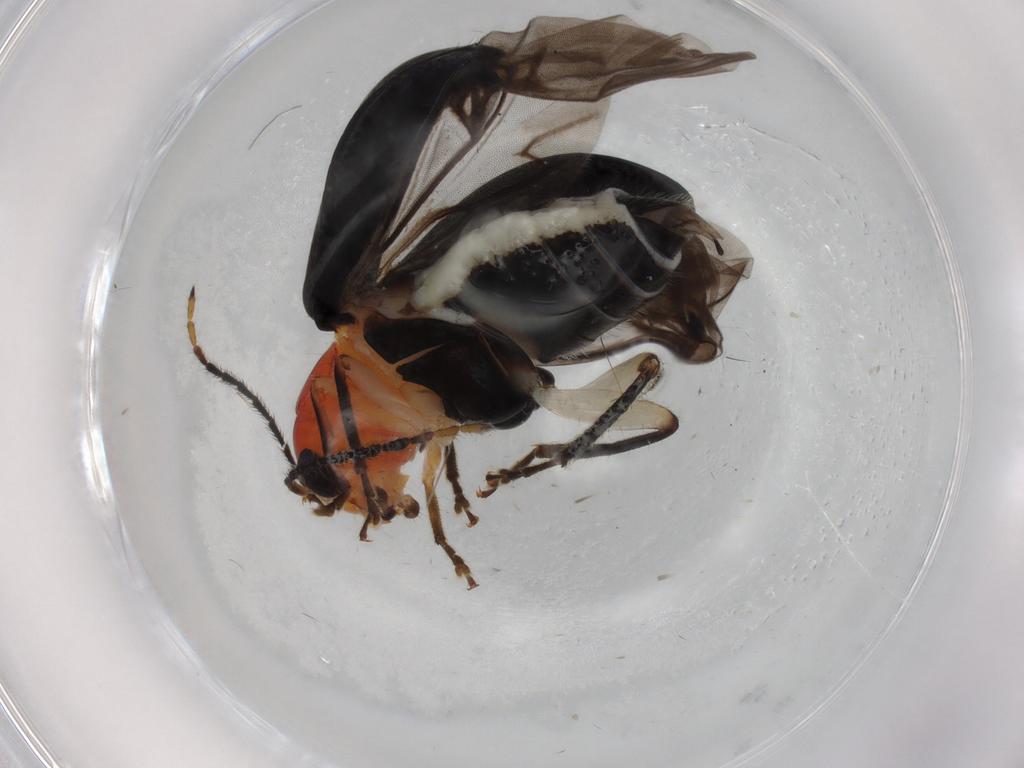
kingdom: Animalia
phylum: Arthropoda
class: Insecta
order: Coleoptera
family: Chrysomelidae
